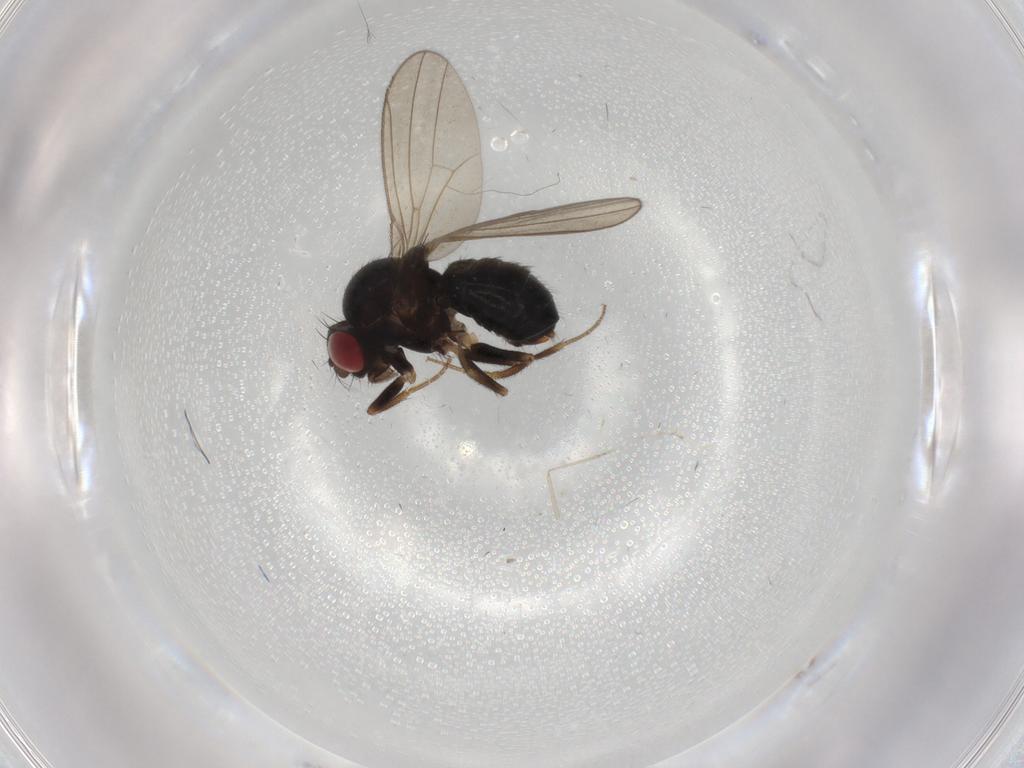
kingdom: Animalia
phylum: Arthropoda
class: Insecta
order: Diptera
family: Drosophilidae
